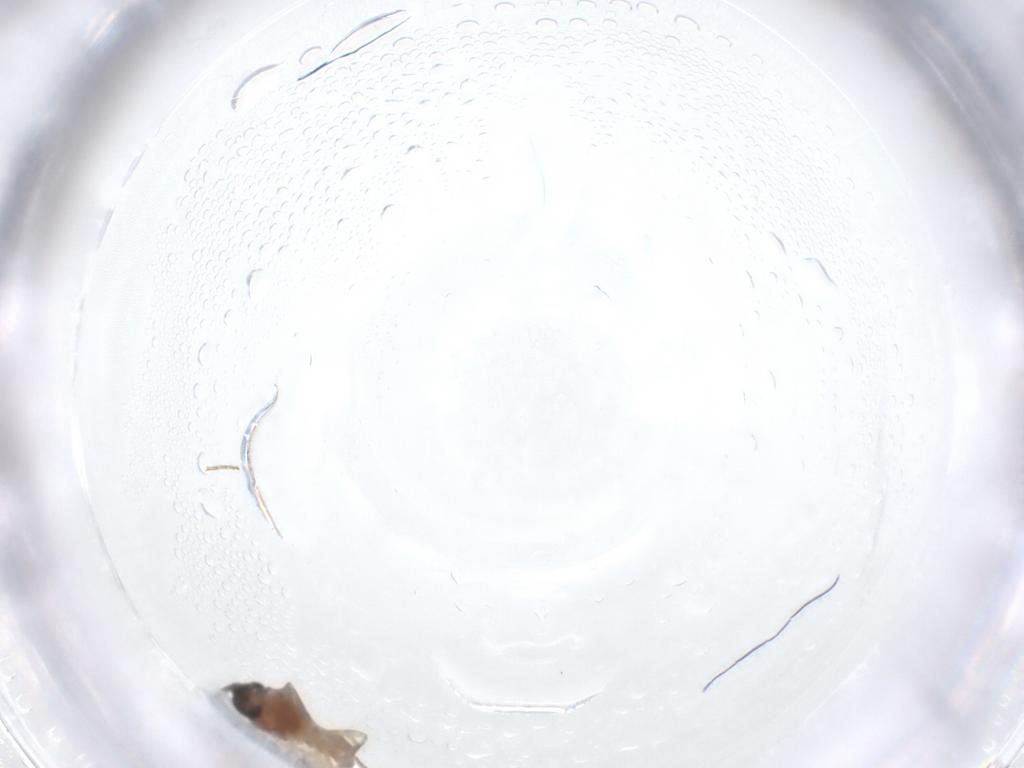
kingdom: Animalia
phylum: Arthropoda
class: Insecta
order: Diptera
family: Ceratopogonidae
